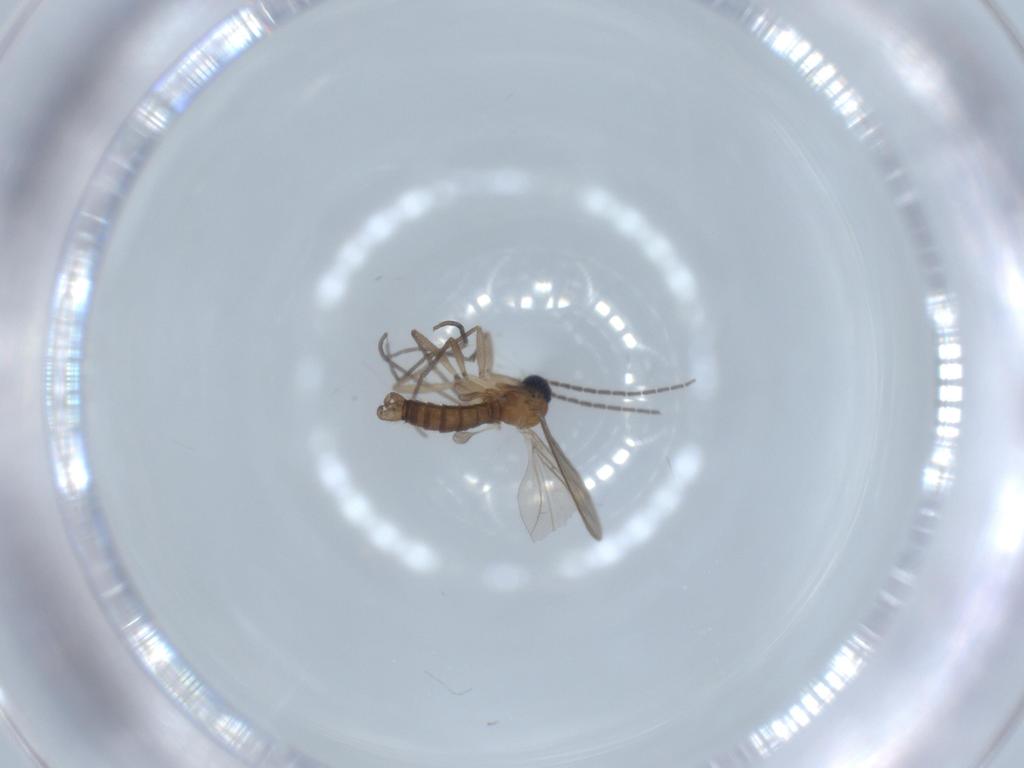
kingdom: Animalia
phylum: Arthropoda
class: Insecta
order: Diptera
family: Sciaridae
